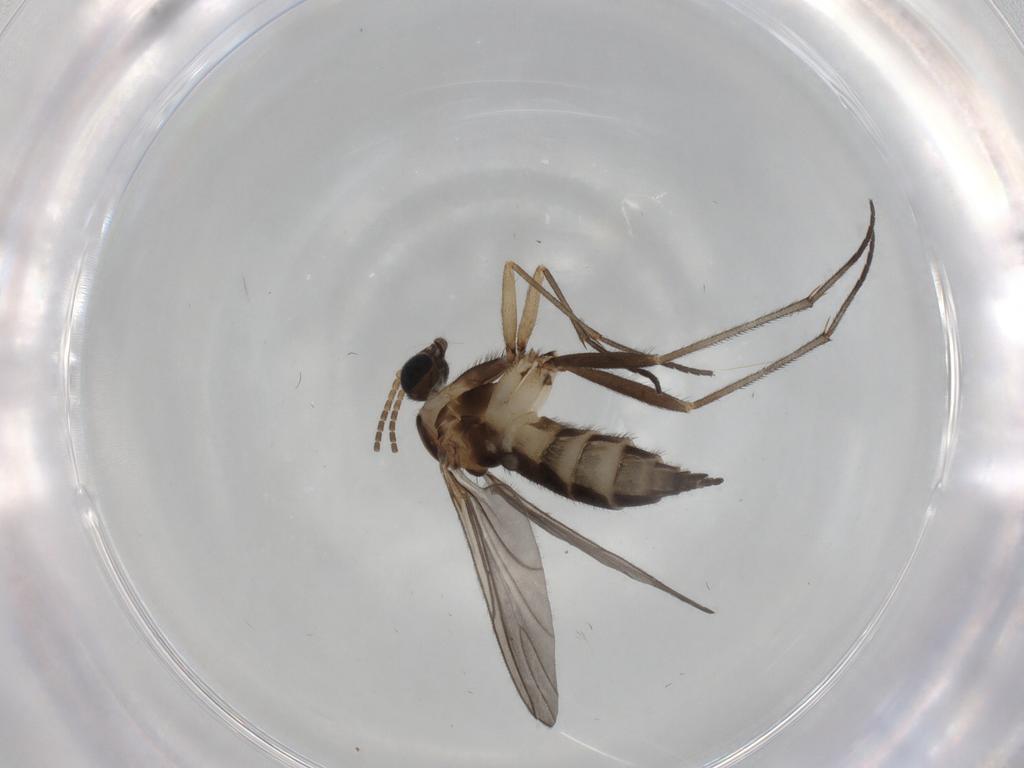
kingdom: Animalia
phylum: Arthropoda
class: Insecta
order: Diptera
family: Sciaridae
